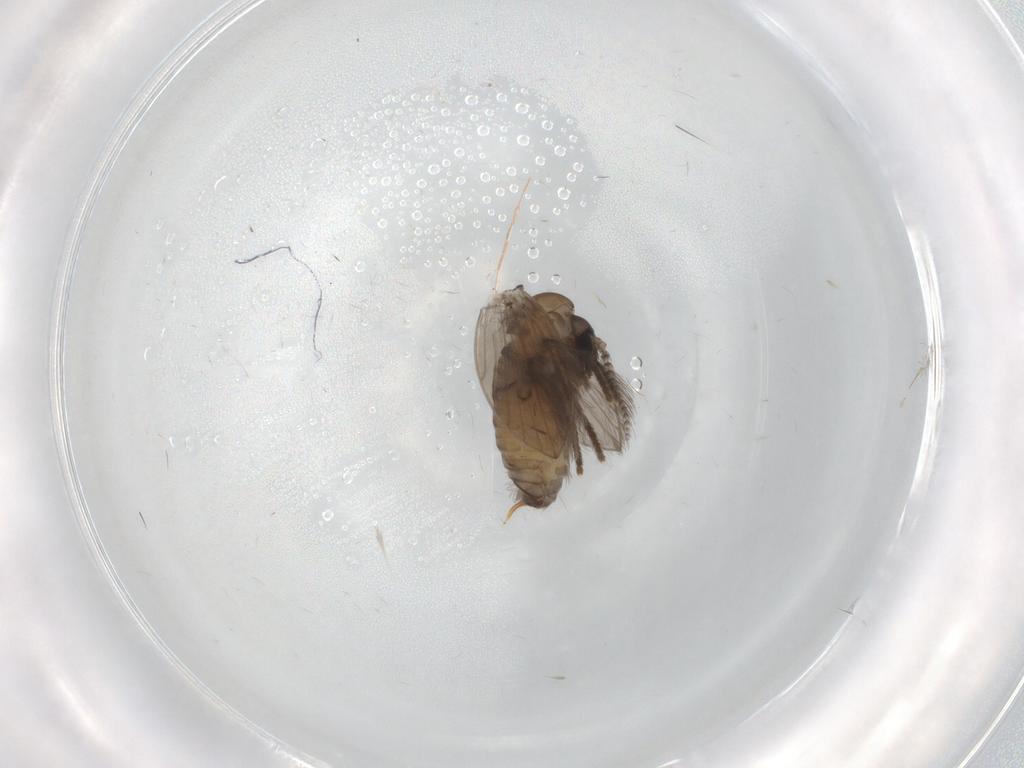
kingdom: Animalia
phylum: Arthropoda
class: Insecta
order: Diptera
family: Psychodidae
